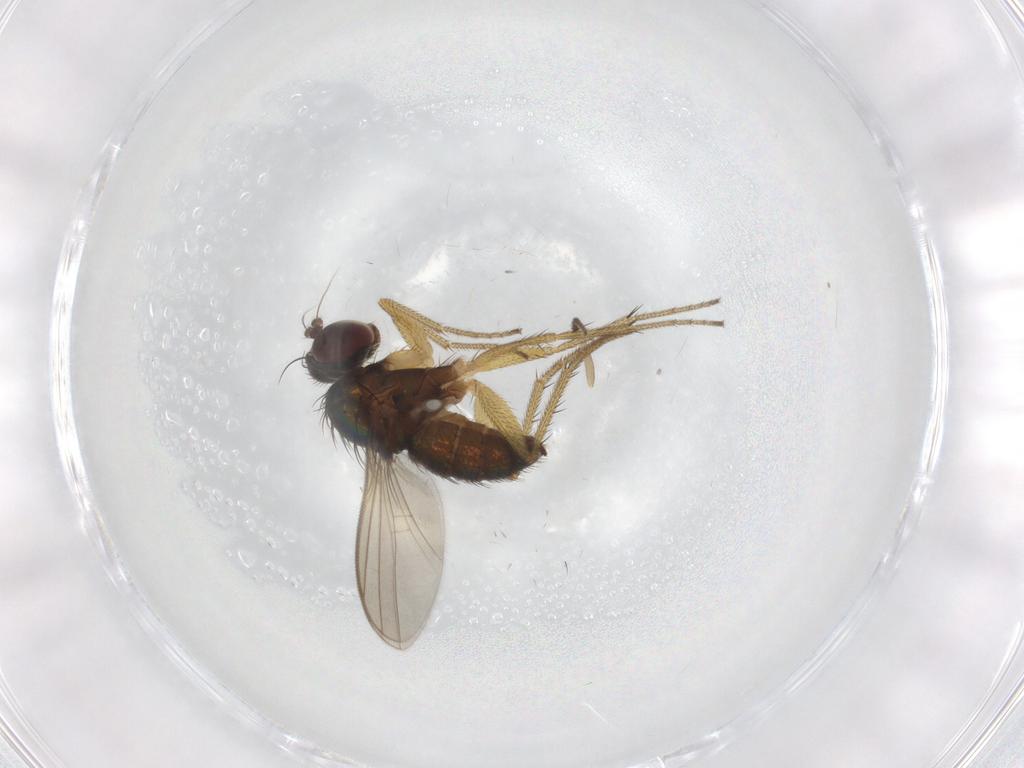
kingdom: Animalia
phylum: Arthropoda
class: Insecta
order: Diptera
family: Chironomidae
